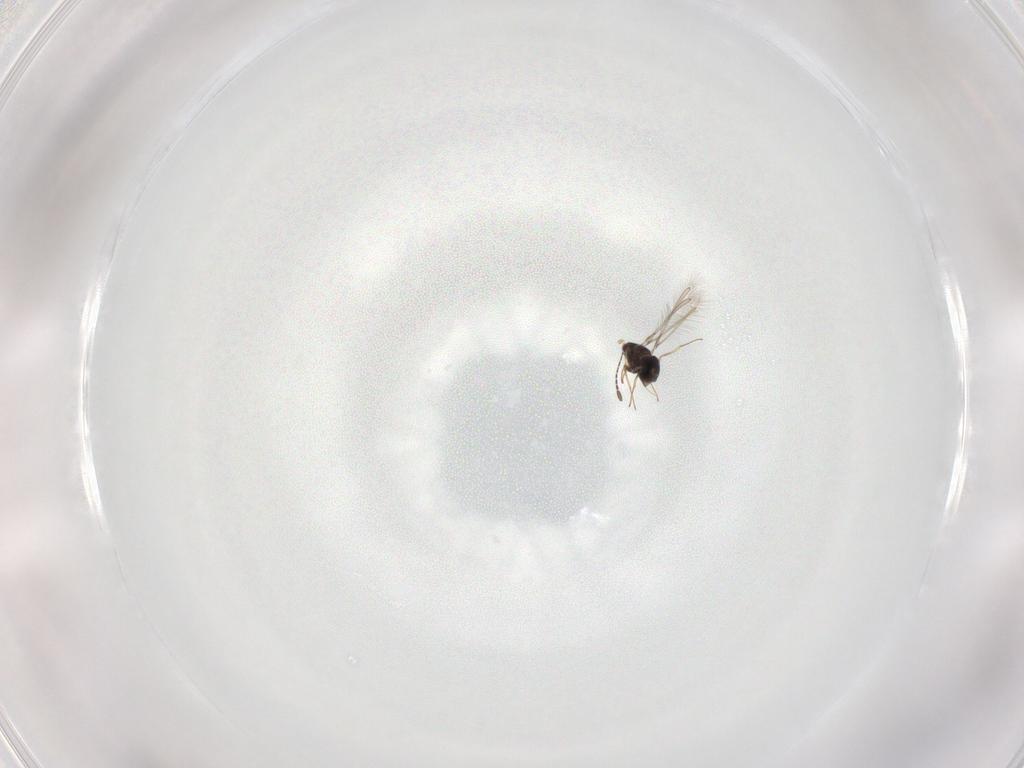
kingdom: Animalia
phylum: Arthropoda
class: Insecta
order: Hymenoptera
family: Mymaridae
